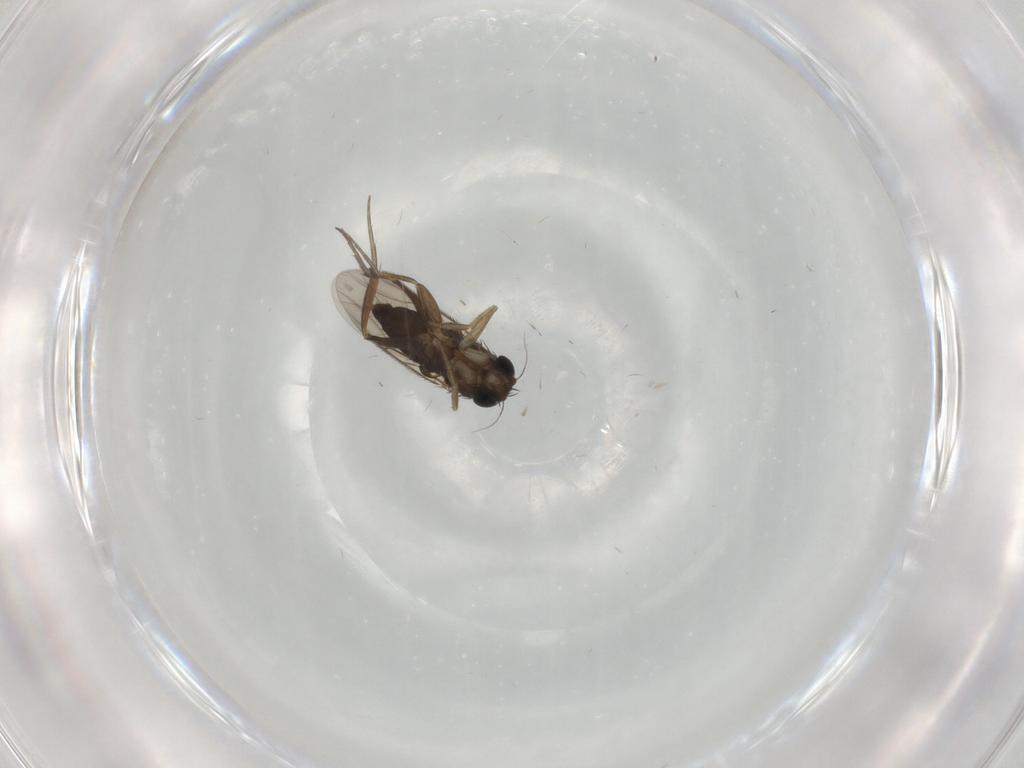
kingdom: Animalia
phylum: Arthropoda
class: Insecta
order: Diptera
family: Phoridae
